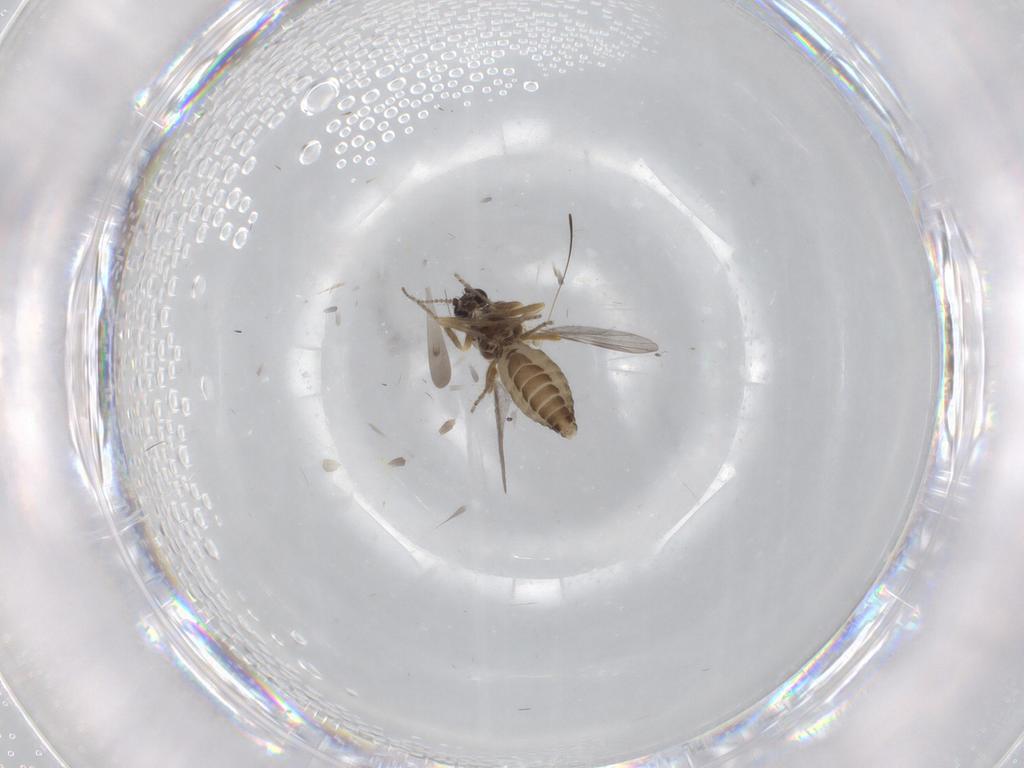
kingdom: Animalia
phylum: Arthropoda
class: Insecta
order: Diptera
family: Ceratopogonidae
